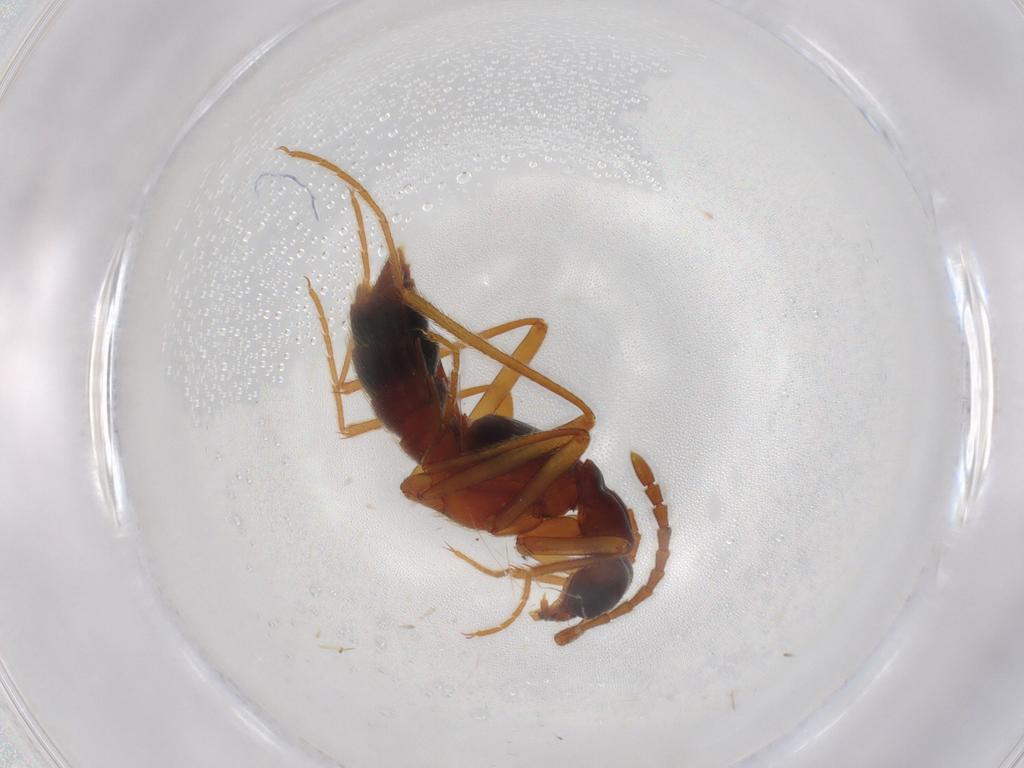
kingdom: Animalia
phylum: Arthropoda
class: Insecta
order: Coleoptera
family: Staphylinidae
